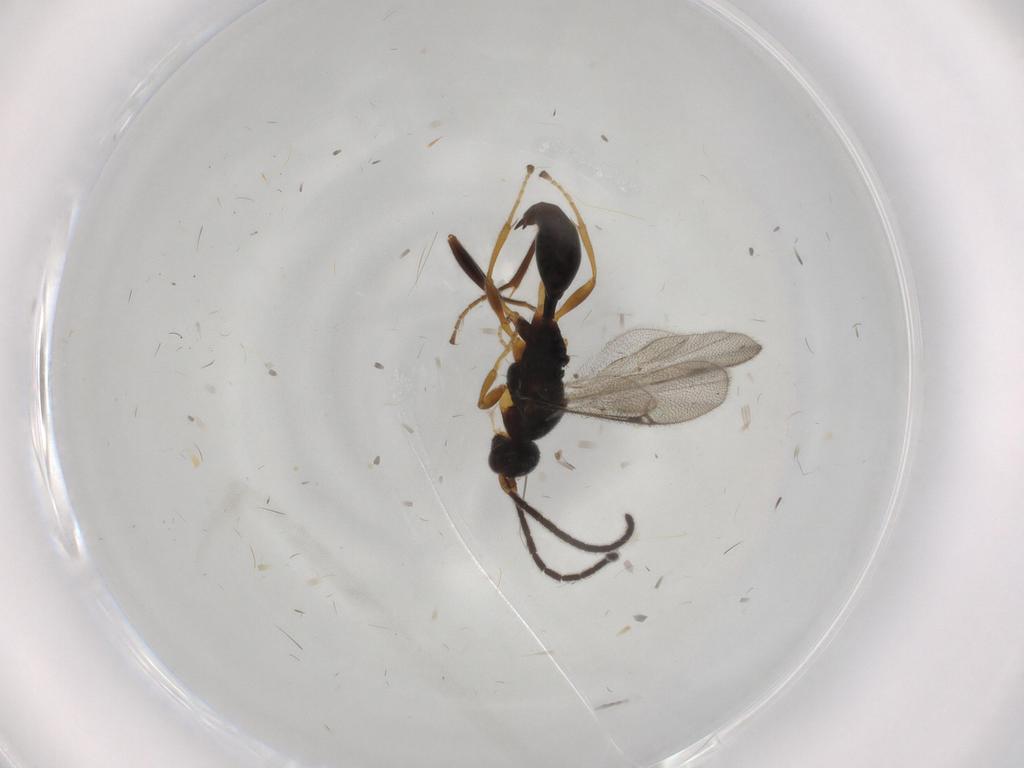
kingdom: Animalia
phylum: Arthropoda
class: Insecta
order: Hymenoptera
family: Proctotrupidae
